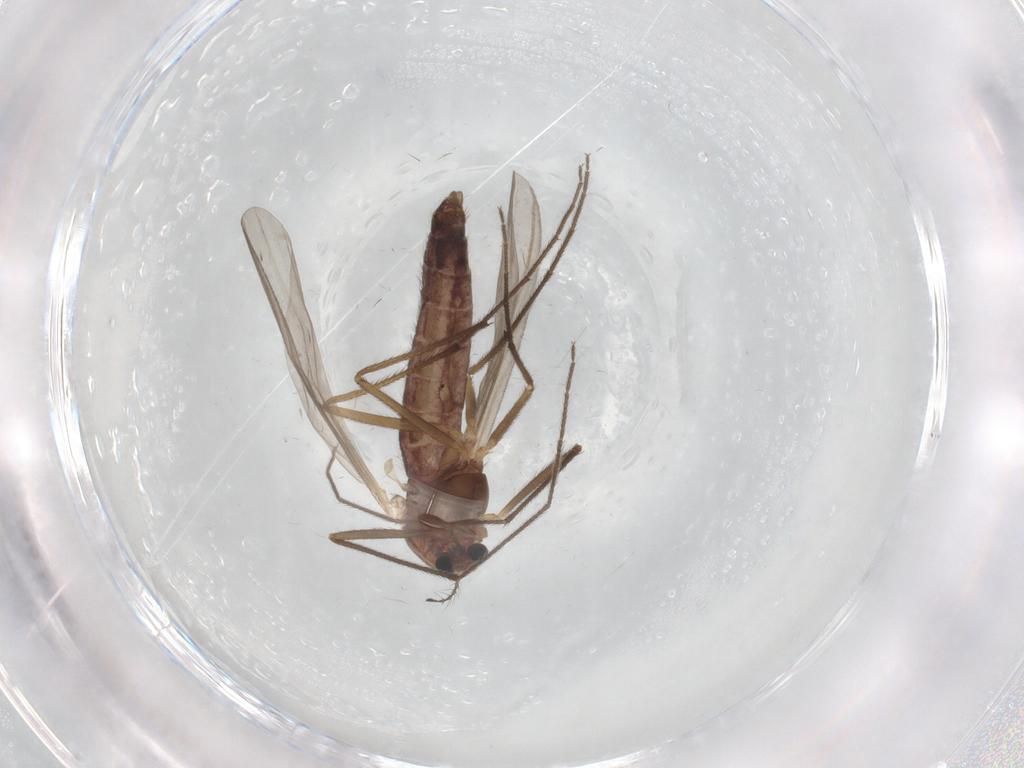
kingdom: Animalia
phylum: Arthropoda
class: Insecta
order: Diptera
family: Chironomidae
